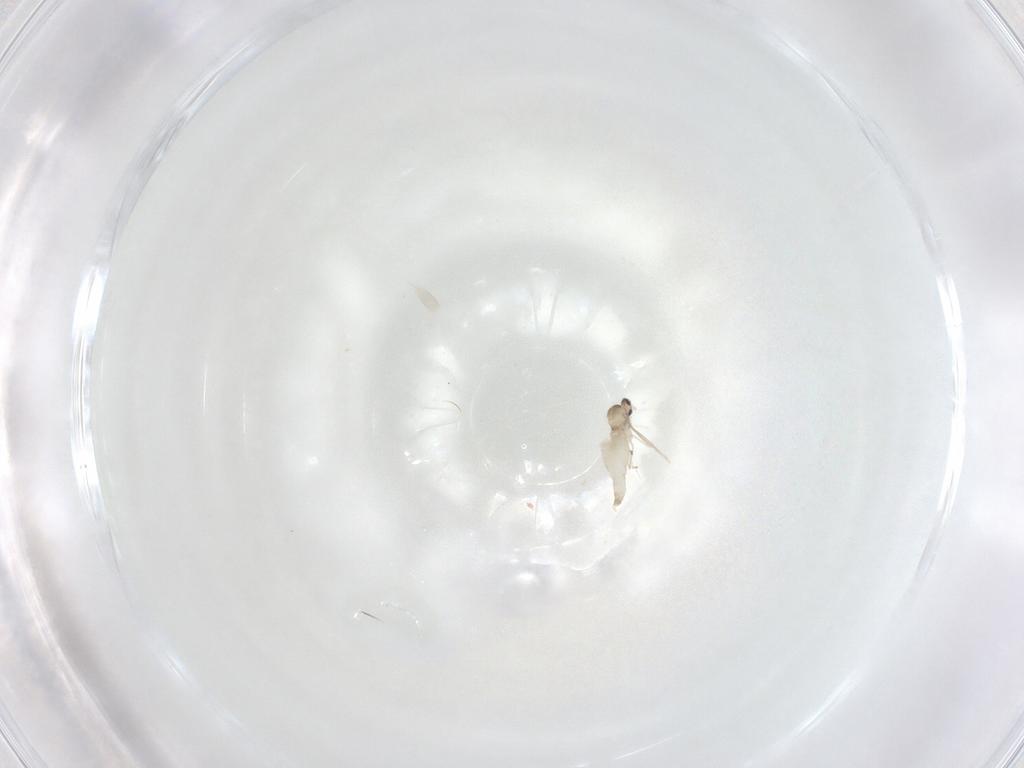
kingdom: Animalia
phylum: Arthropoda
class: Insecta
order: Diptera
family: Cecidomyiidae
